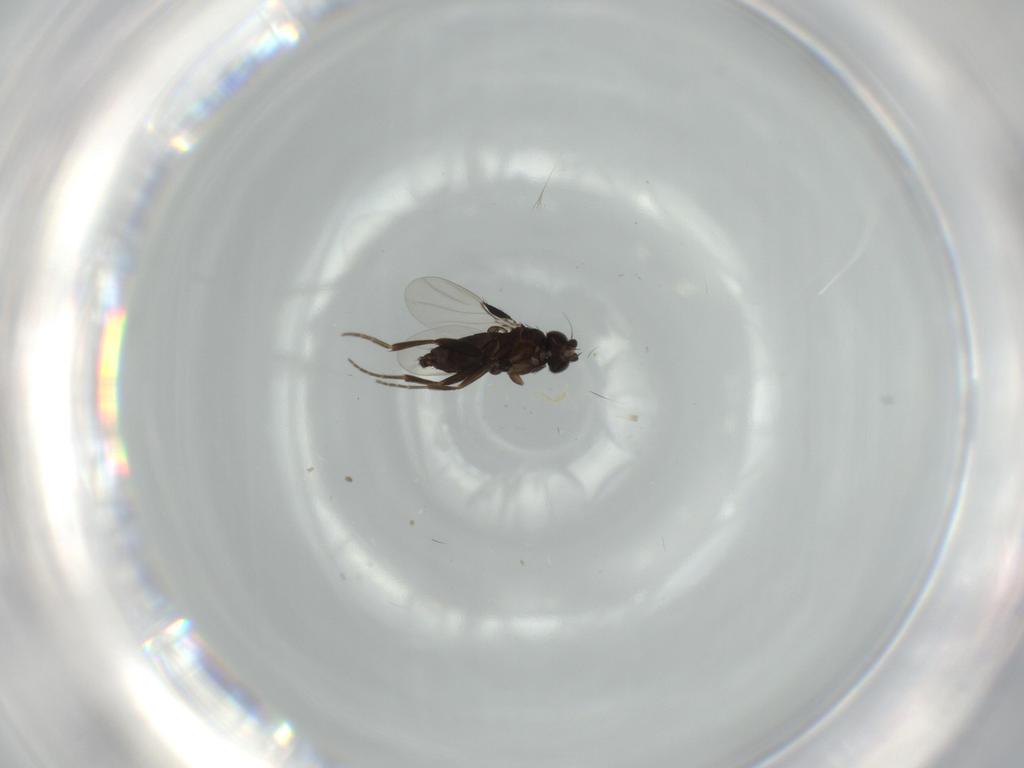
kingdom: Animalia
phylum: Arthropoda
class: Insecta
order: Diptera
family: Phoridae
